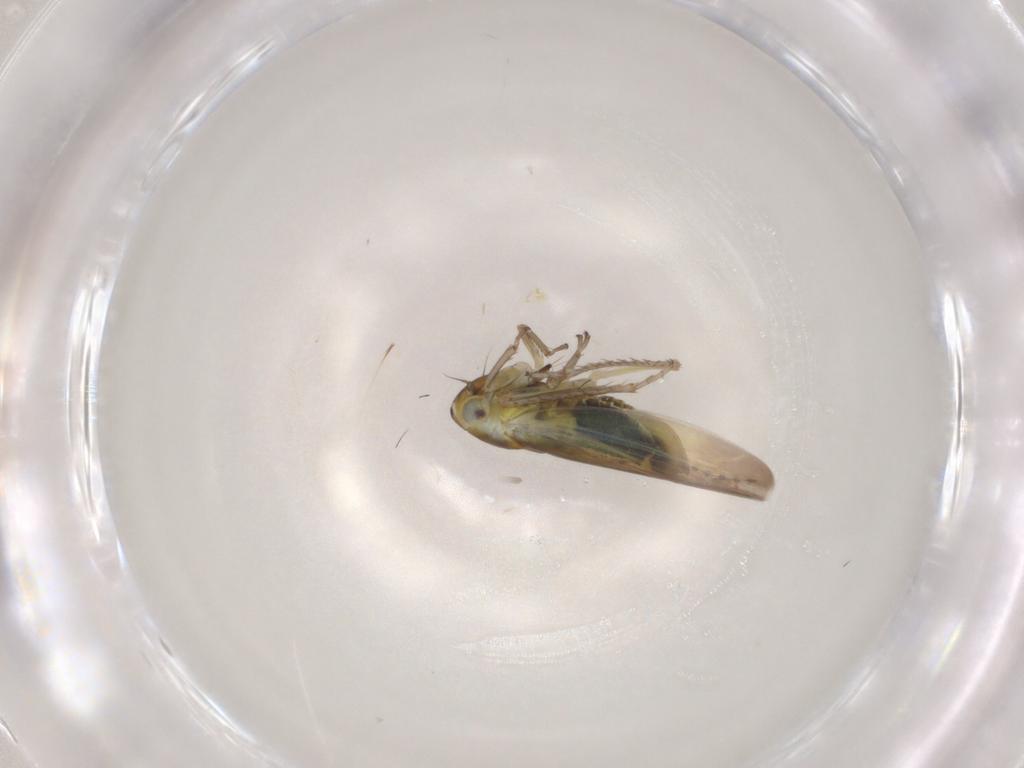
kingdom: Animalia
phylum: Arthropoda
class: Insecta
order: Hemiptera
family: Cicadellidae
